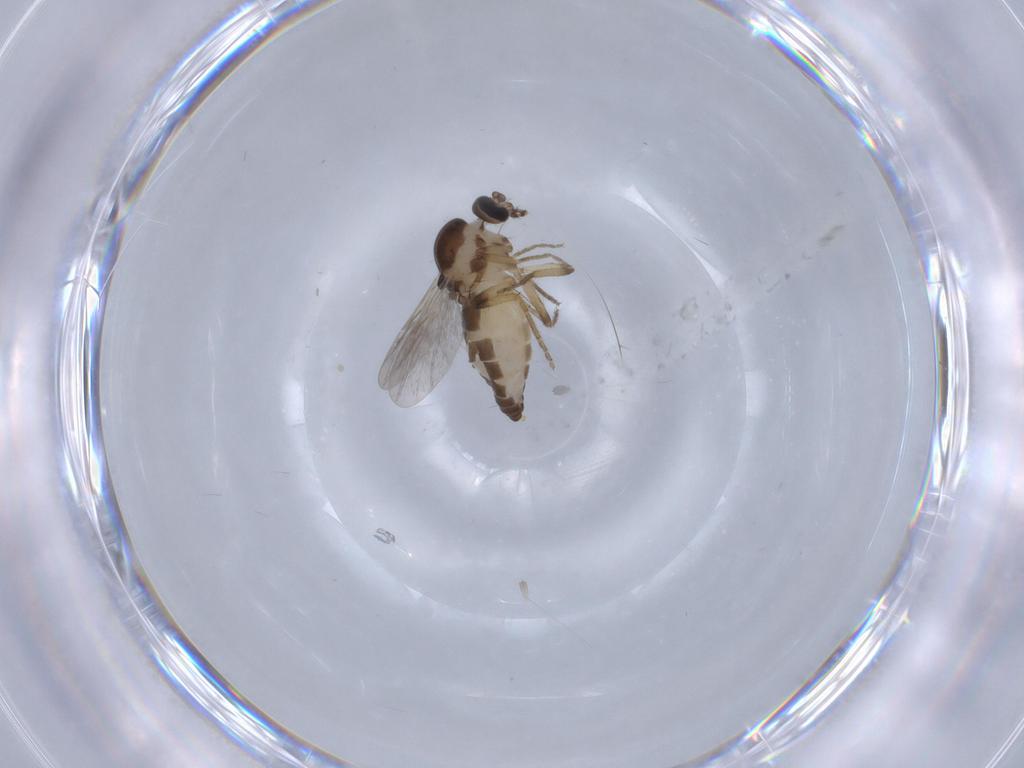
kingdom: Animalia
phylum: Arthropoda
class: Insecta
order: Diptera
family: Ceratopogonidae
